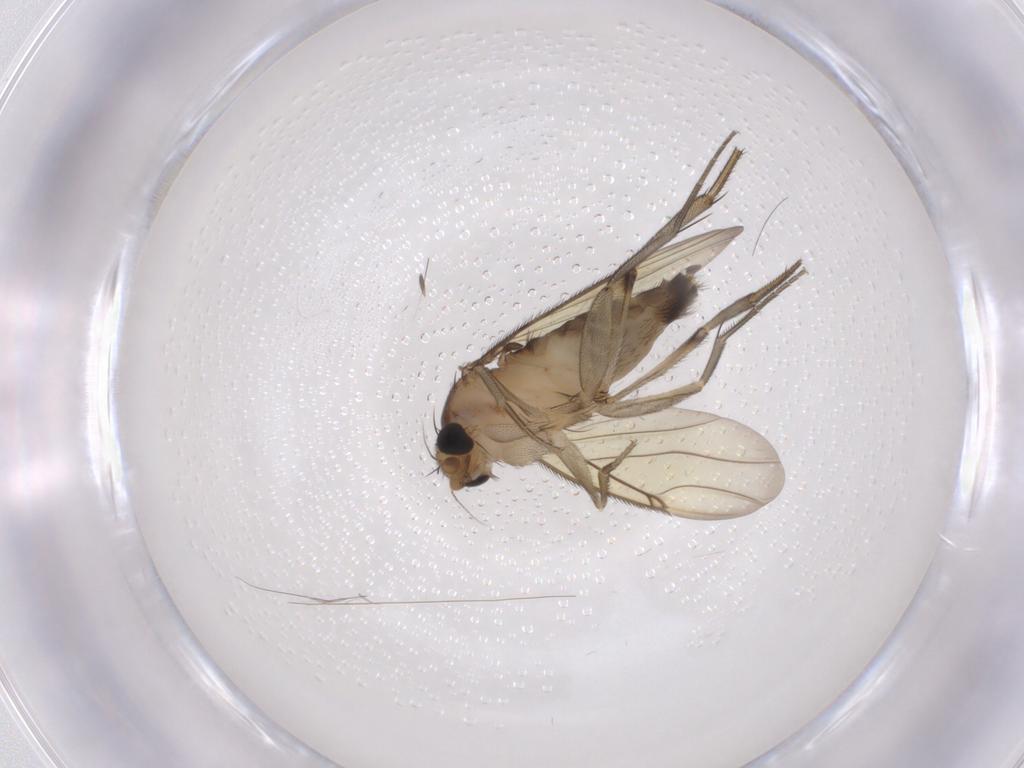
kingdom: Animalia
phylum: Arthropoda
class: Insecta
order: Diptera
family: Phoridae
